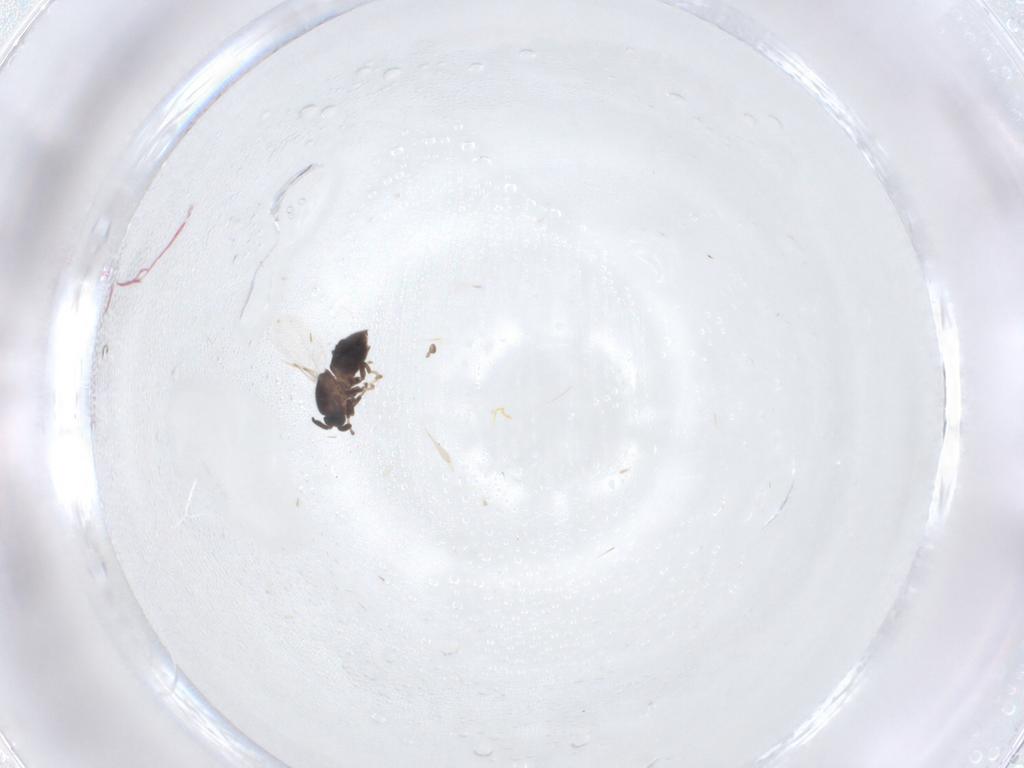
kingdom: Animalia
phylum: Arthropoda
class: Insecta
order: Diptera
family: Scatopsidae
